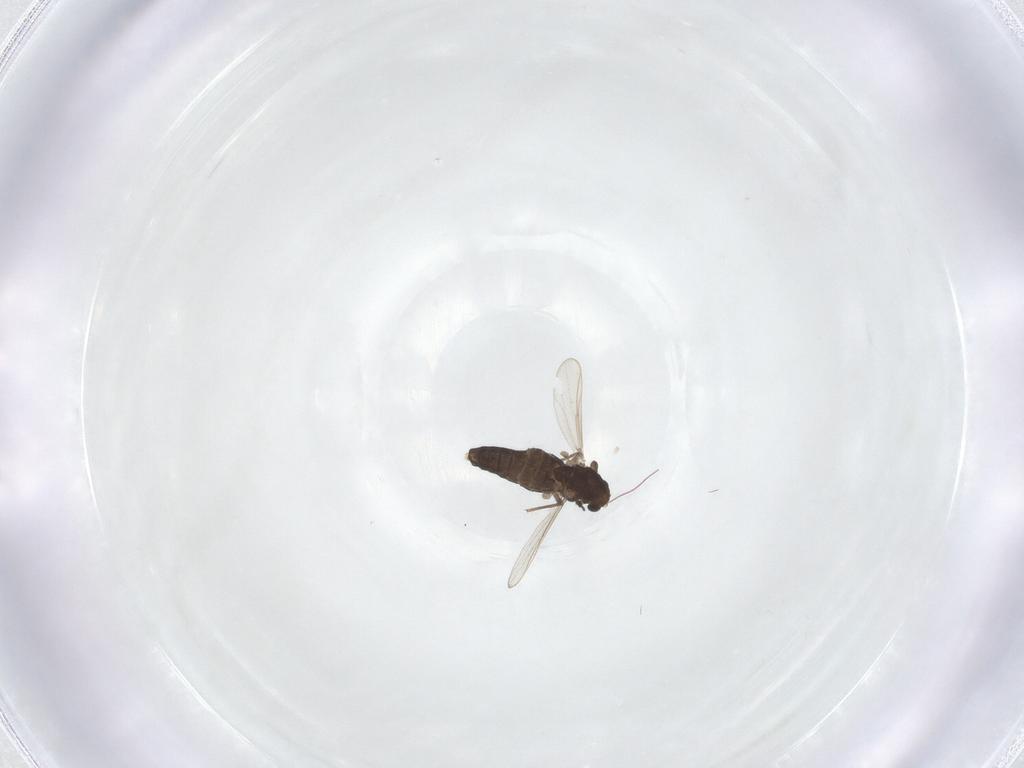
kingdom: Animalia
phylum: Arthropoda
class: Insecta
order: Diptera
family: Chironomidae
